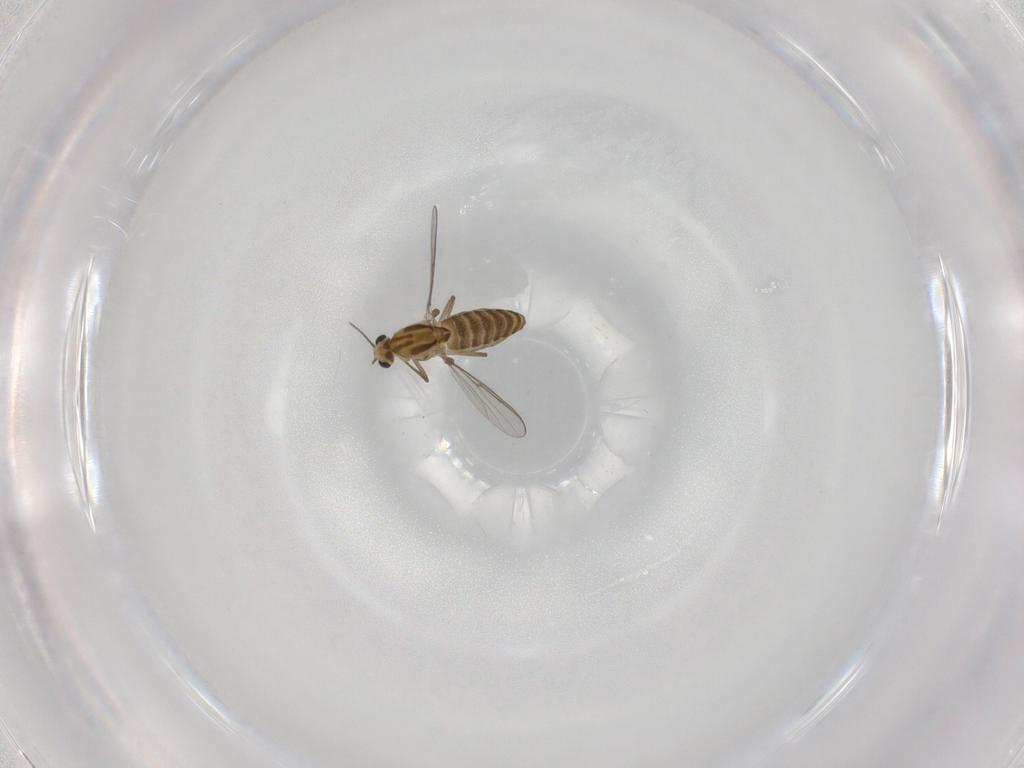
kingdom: Animalia
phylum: Arthropoda
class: Insecta
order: Diptera
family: Chironomidae
